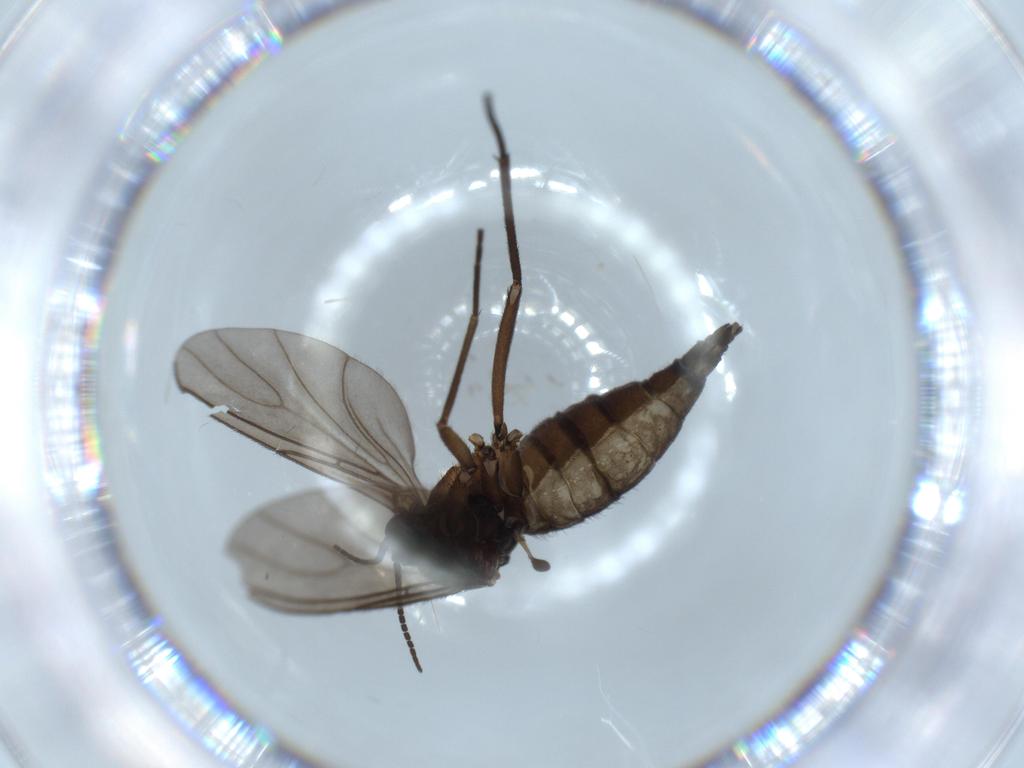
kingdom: Animalia
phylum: Arthropoda
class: Insecta
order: Diptera
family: Sciaridae
